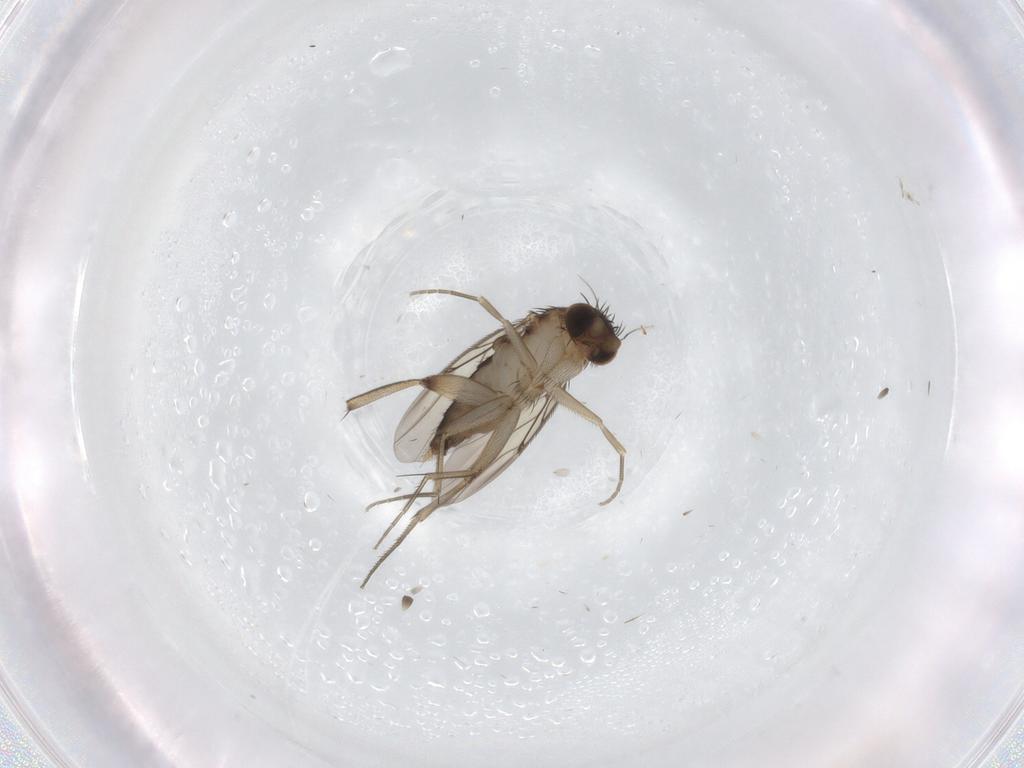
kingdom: Animalia
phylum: Arthropoda
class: Insecta
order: Diptera
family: Phoridae
